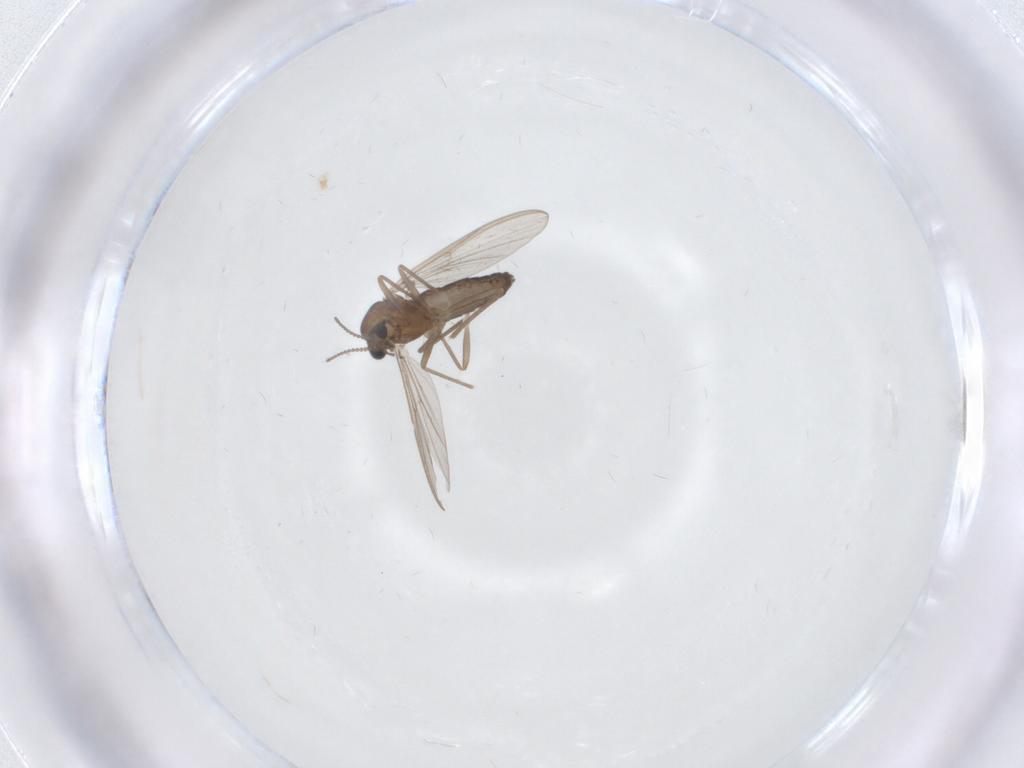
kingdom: Animalia
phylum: Arthropoda
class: Insecta
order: Diptera
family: Chironomidae
